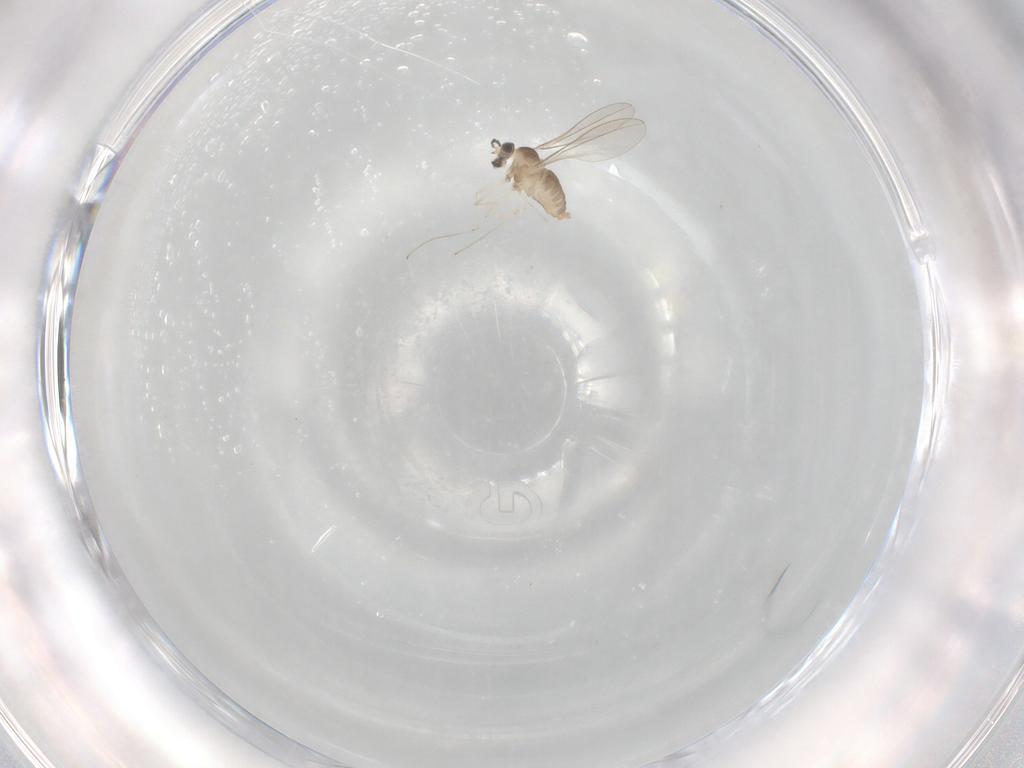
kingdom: Animalia
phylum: Arthropoda
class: Insecta
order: Diptera
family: Cecidomyiidae
